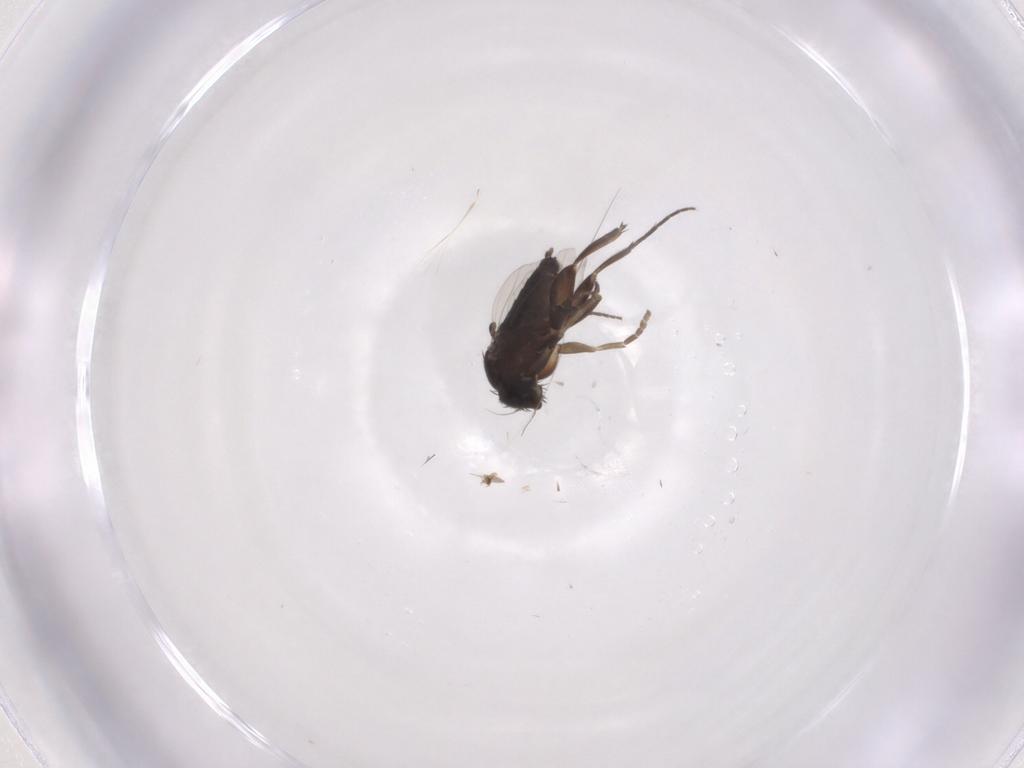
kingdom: Animalia
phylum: Arthropoda
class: Insecta
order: Diptera
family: Phoridae
